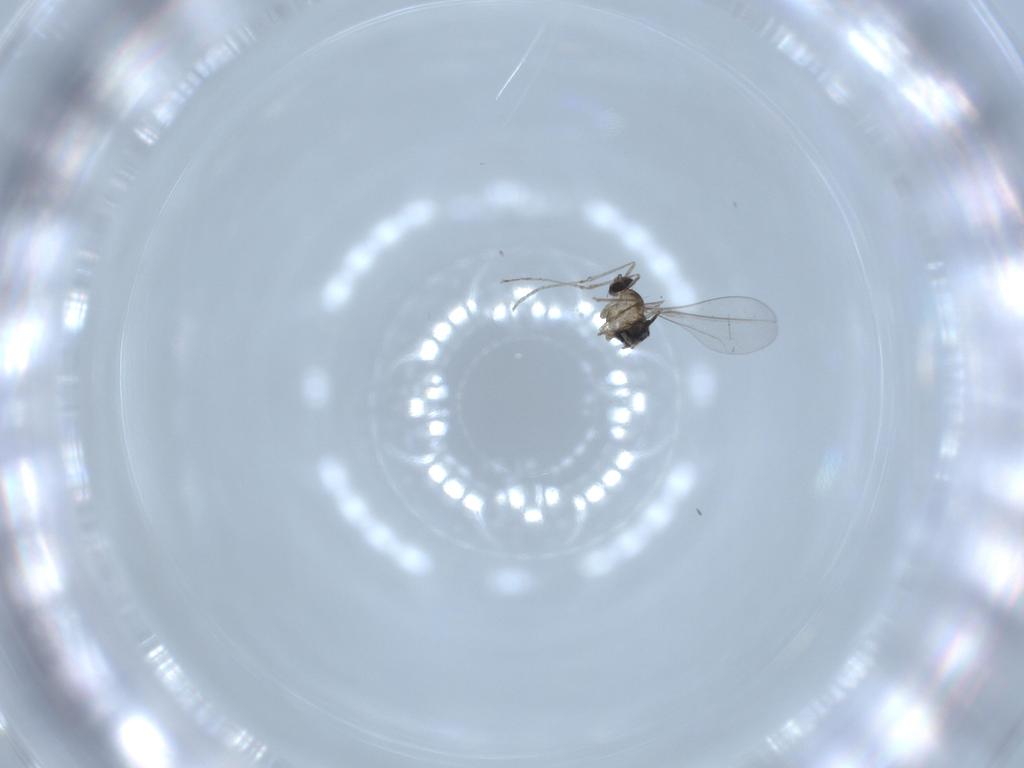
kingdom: Animalia
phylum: Arthropoda
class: Insecta
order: Diptera
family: Cecidomyiidae
